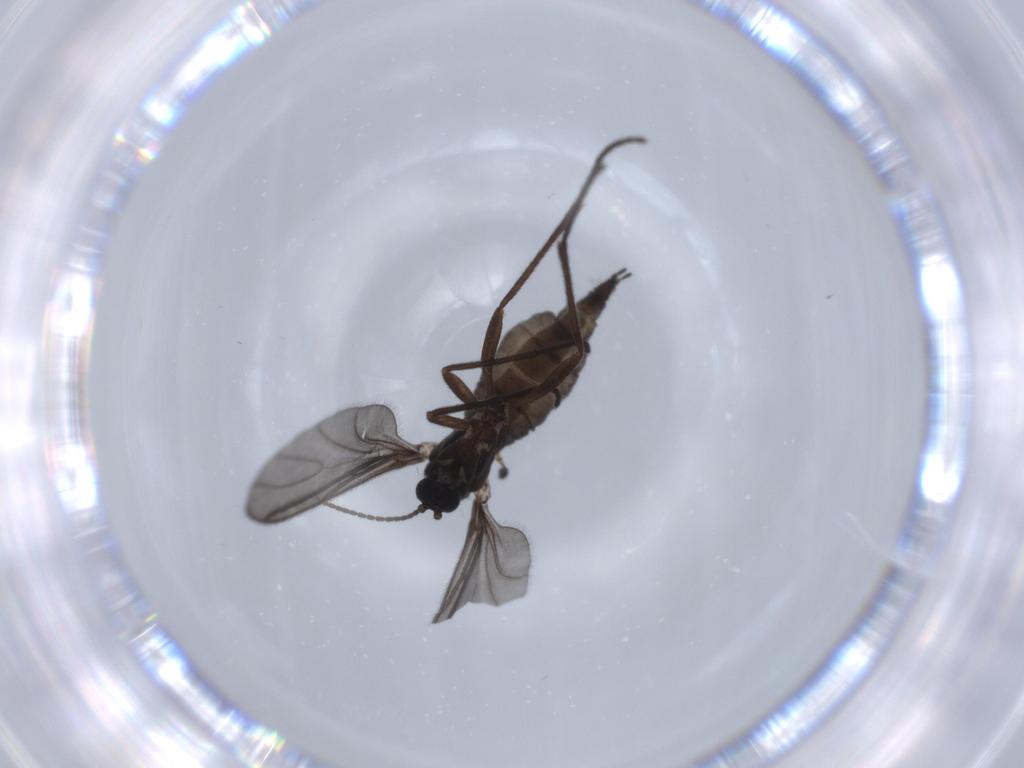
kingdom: Animalia
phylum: Arthropoda
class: Insecta
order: Diptera
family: Sciaridae
